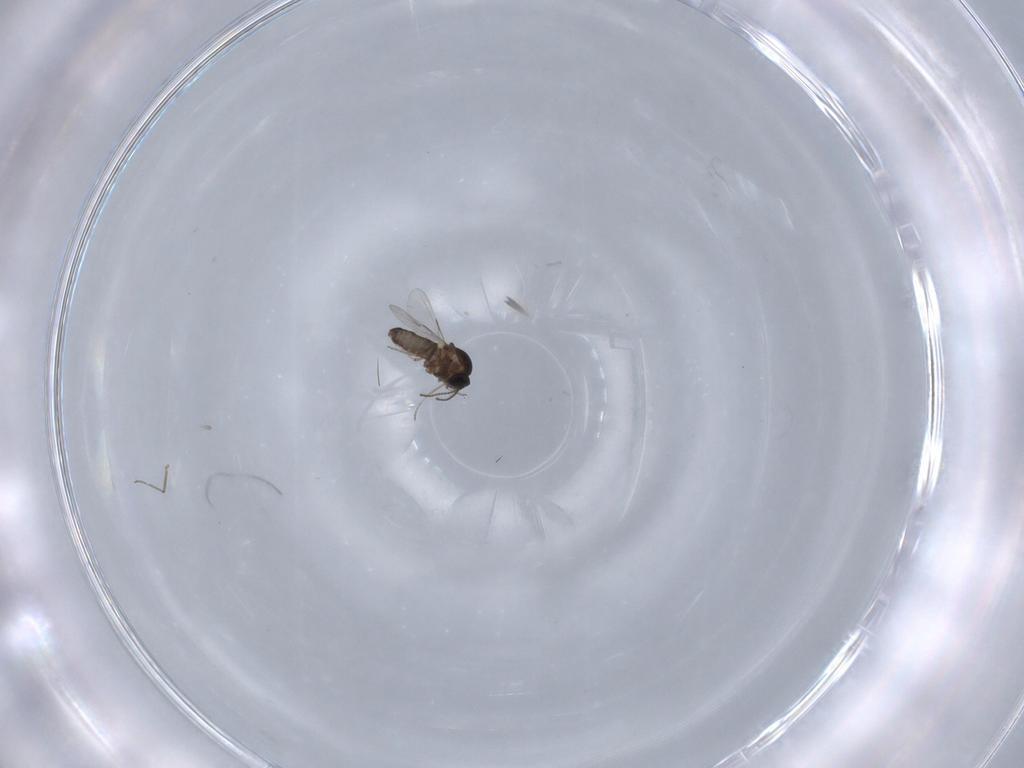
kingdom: Animalia
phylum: Arthropoda
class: Insecta
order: Diptera
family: Ceratopogonidae
